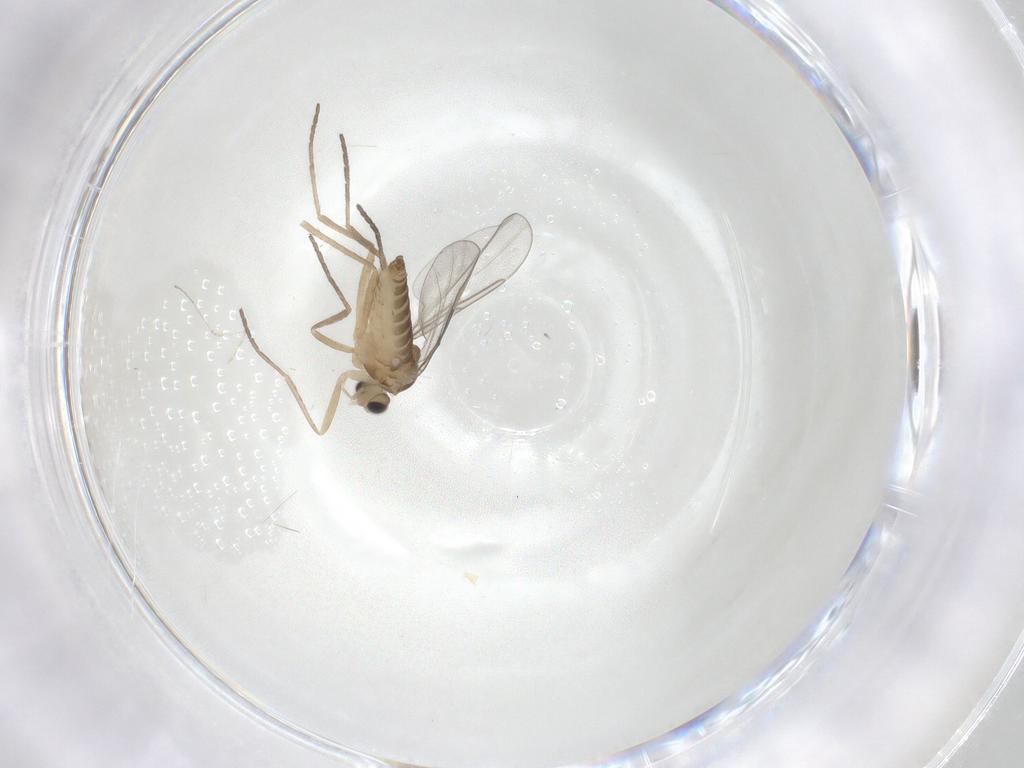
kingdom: Animalia
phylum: Arthropoda
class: Insecta
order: Diptera
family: Cecidomyiidae
